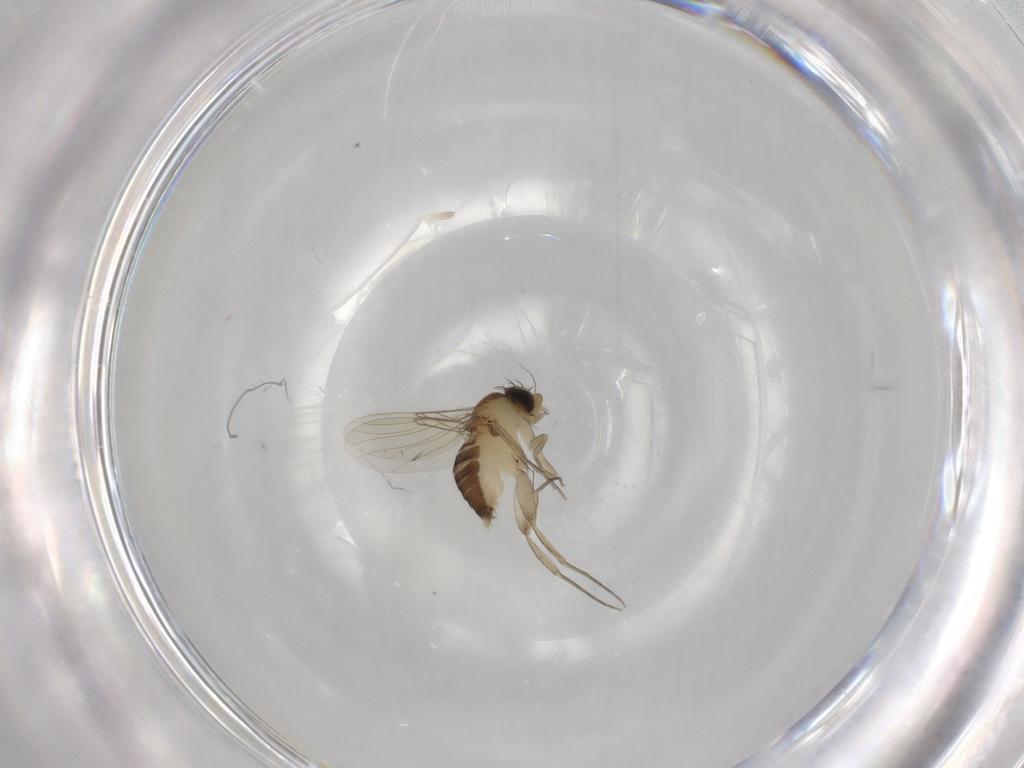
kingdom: Animalia
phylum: Arthropoda
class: Insecta
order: Diptera
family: Phoridae
